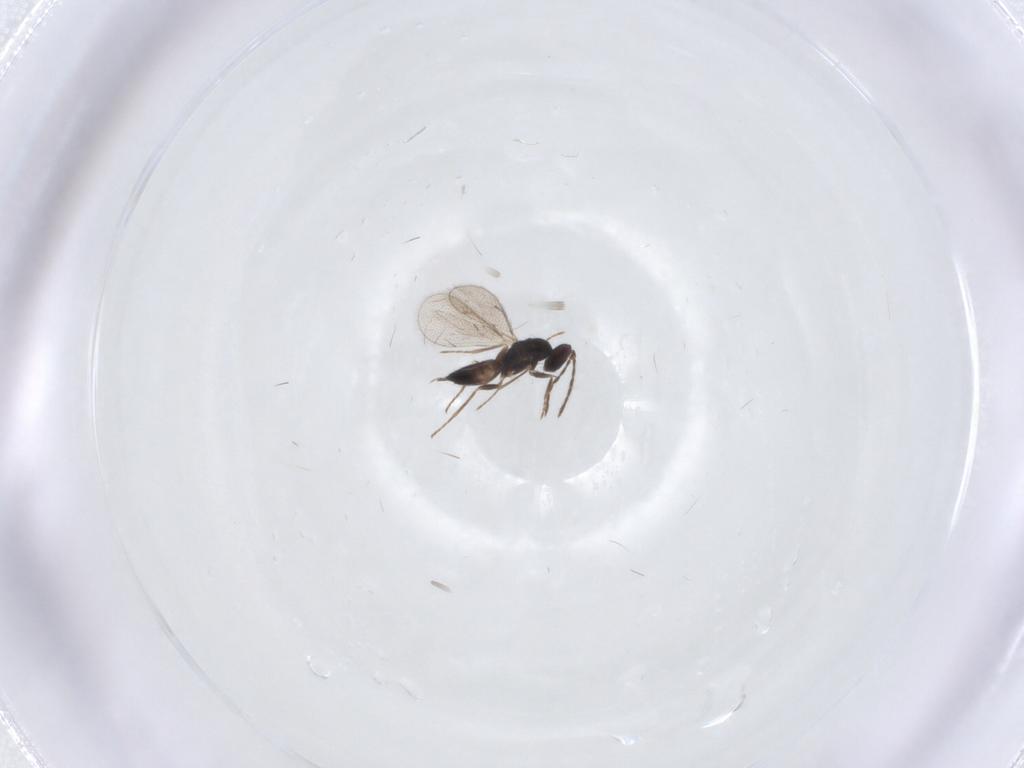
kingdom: Animalia
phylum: Arthropoda
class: Insecta
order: Hymenoptera
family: Eulophidae
